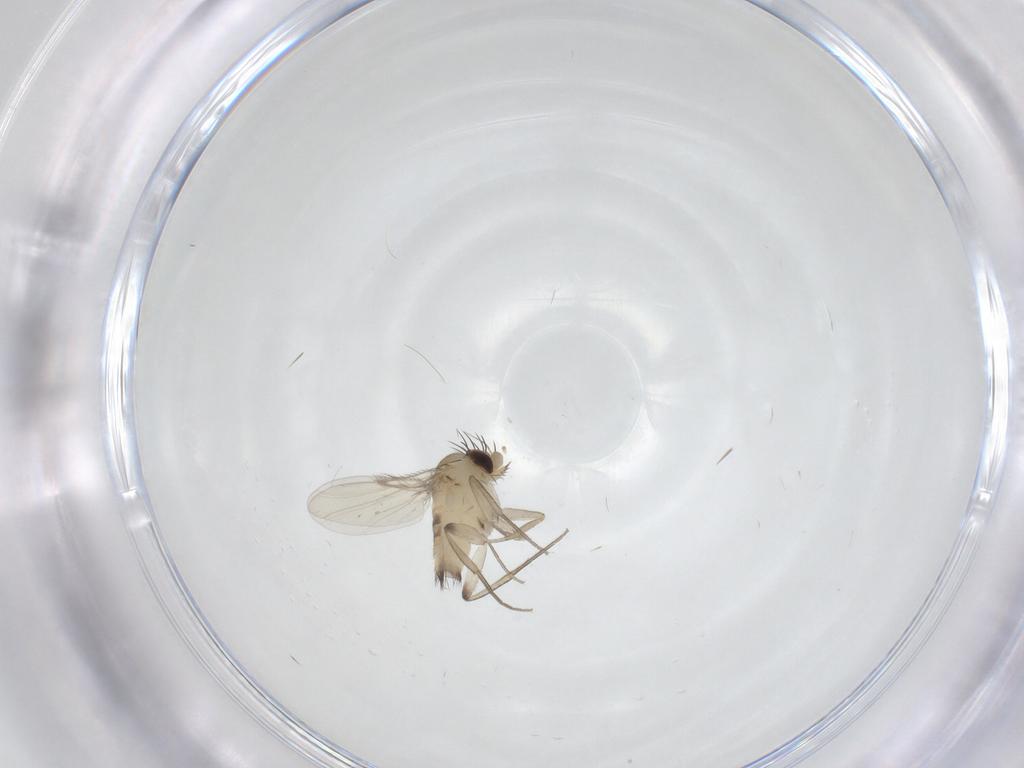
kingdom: Animalia
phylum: Arthropoda
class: Insecta
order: Diptera
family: Phoridae
